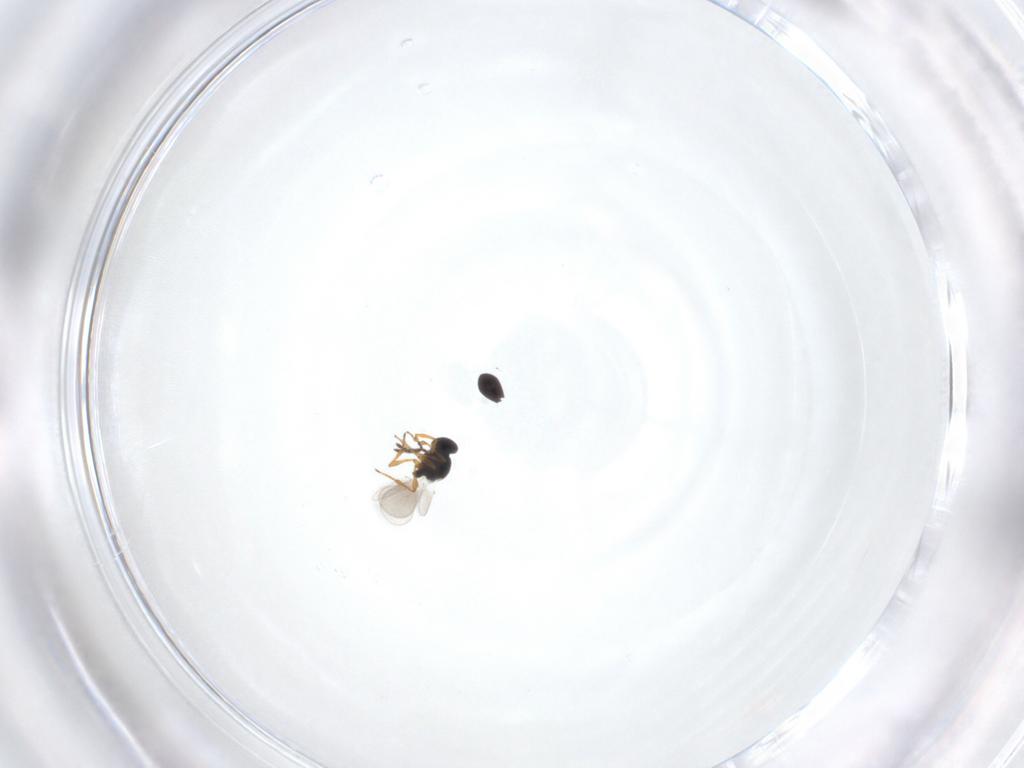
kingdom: Animalia
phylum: Arthropoda
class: Insecta
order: Hymenoptera
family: Platygastridae
